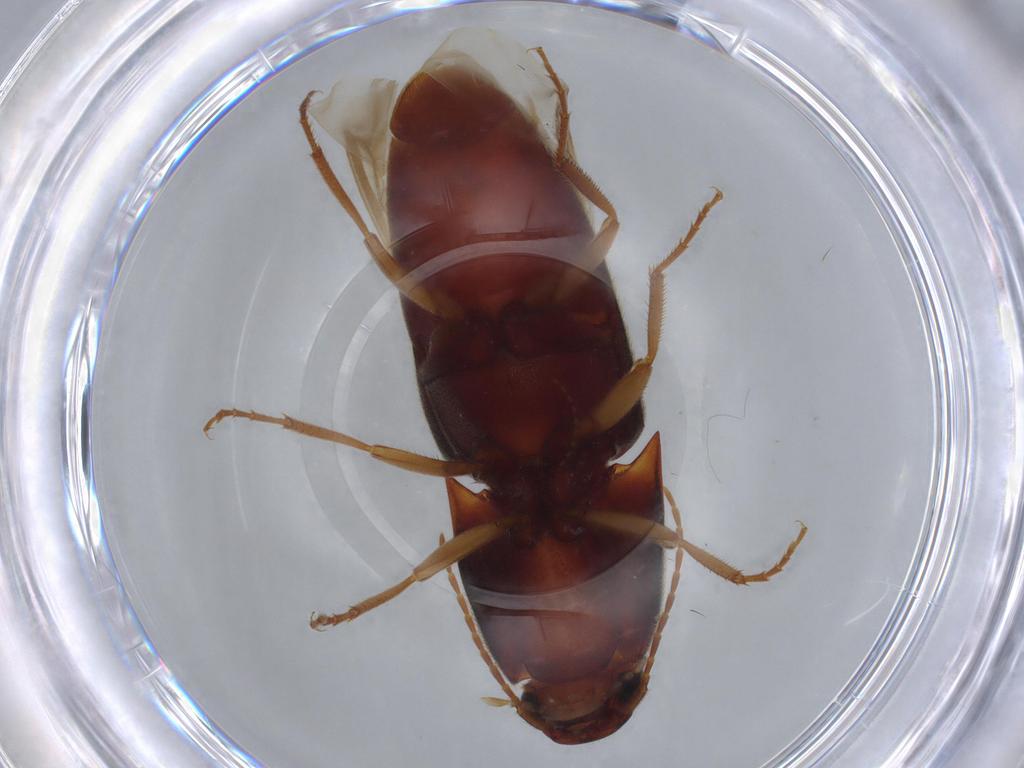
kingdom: Animalia
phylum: Arthropoda
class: Insecta
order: Coleoptera
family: Elateridae
